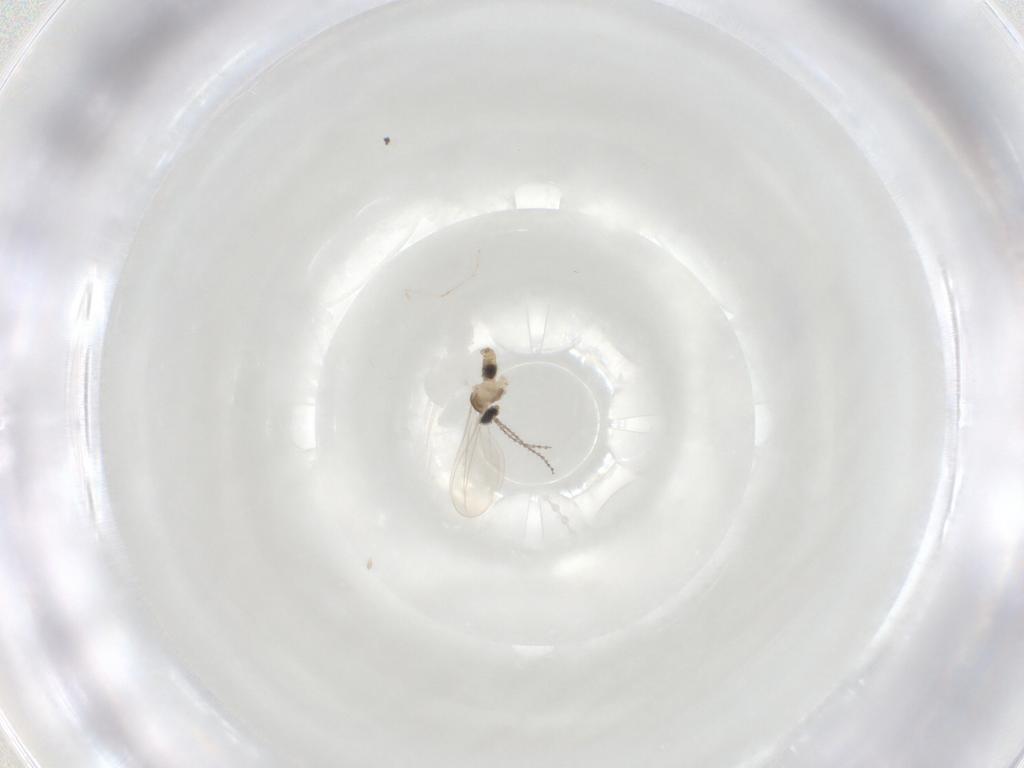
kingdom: Animalia
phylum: Arthropoda
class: Insecta
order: Diptera
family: Cecidomyiidae
